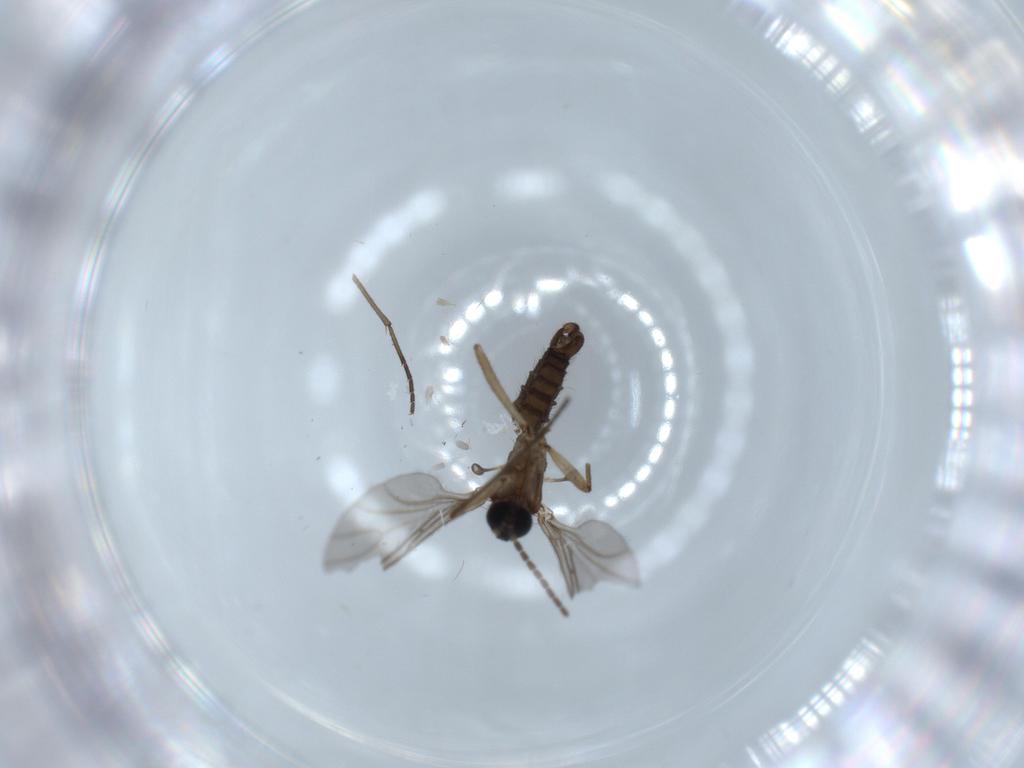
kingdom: Animalia
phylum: Arthropoda
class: Insecta
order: Diptera
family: Sciaridae
